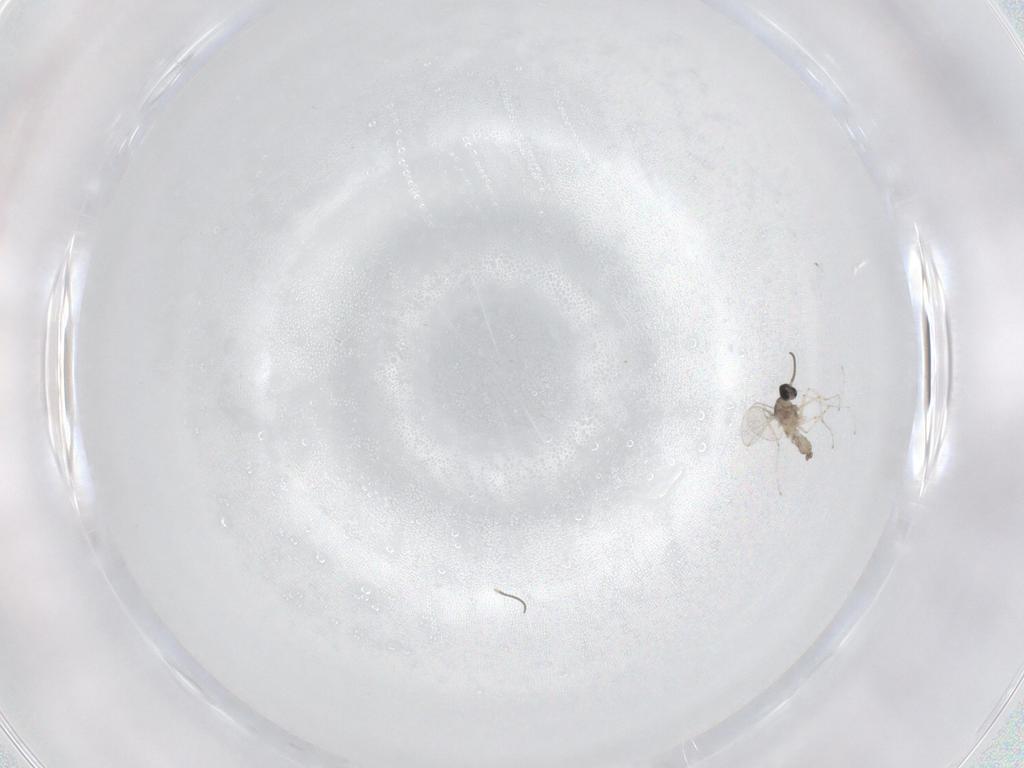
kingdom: Animalia
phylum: Arthropoda
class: Insecta
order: Diptera
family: Cecidomyiidae
